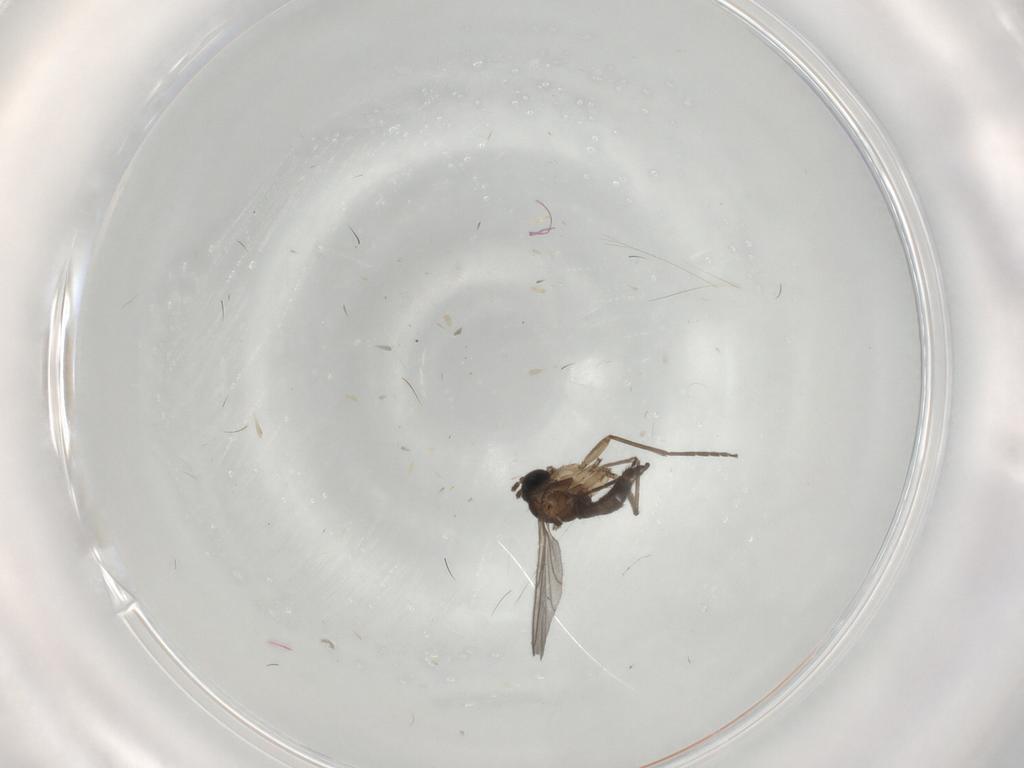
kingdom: Animalia
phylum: Arthropoda
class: Insecta
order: Diptera
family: Sciaridae
